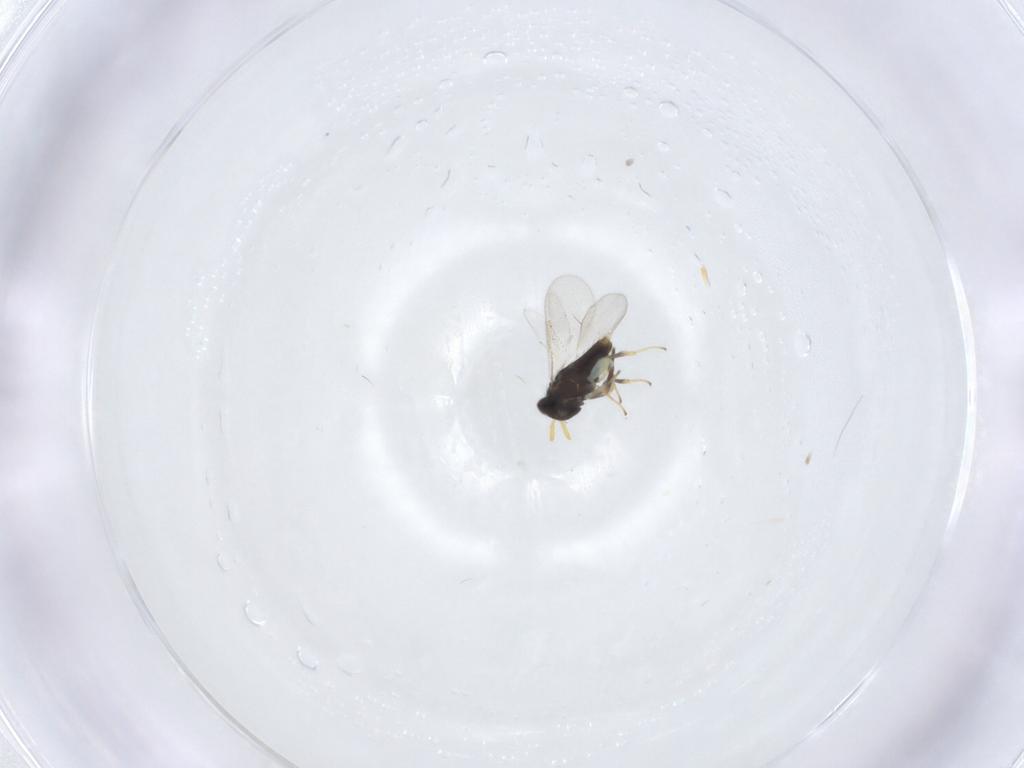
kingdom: Animalia
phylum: Arthropoda
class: Insecta
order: Hymenoptera
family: Aphelinidae
